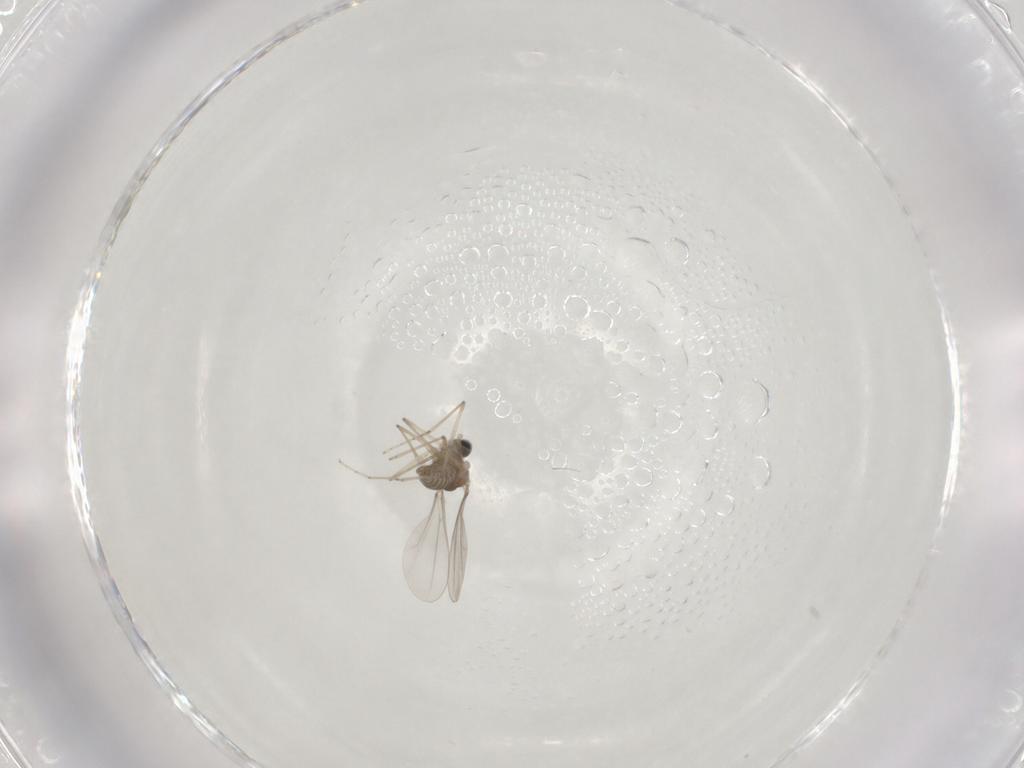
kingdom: Animalia
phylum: Arthropoda
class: Insecta
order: Diptera
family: Cecidomyiidae
